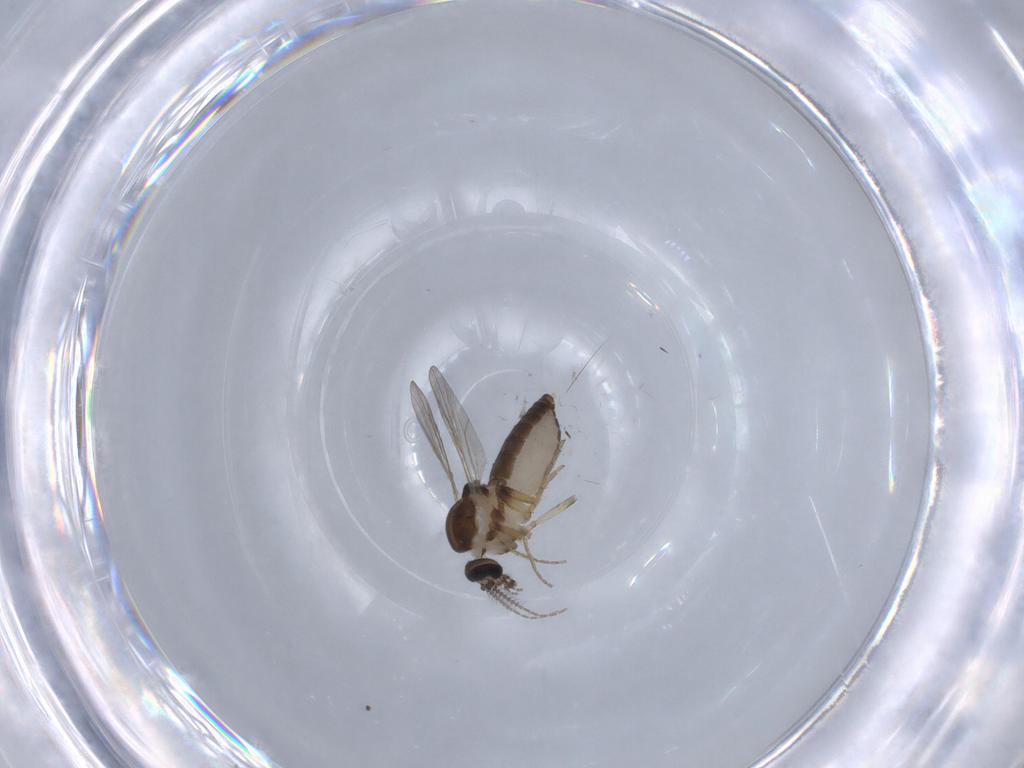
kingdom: Animalia
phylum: Arthropoda
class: Insecta
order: Diptera
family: Ceratopogonidae
